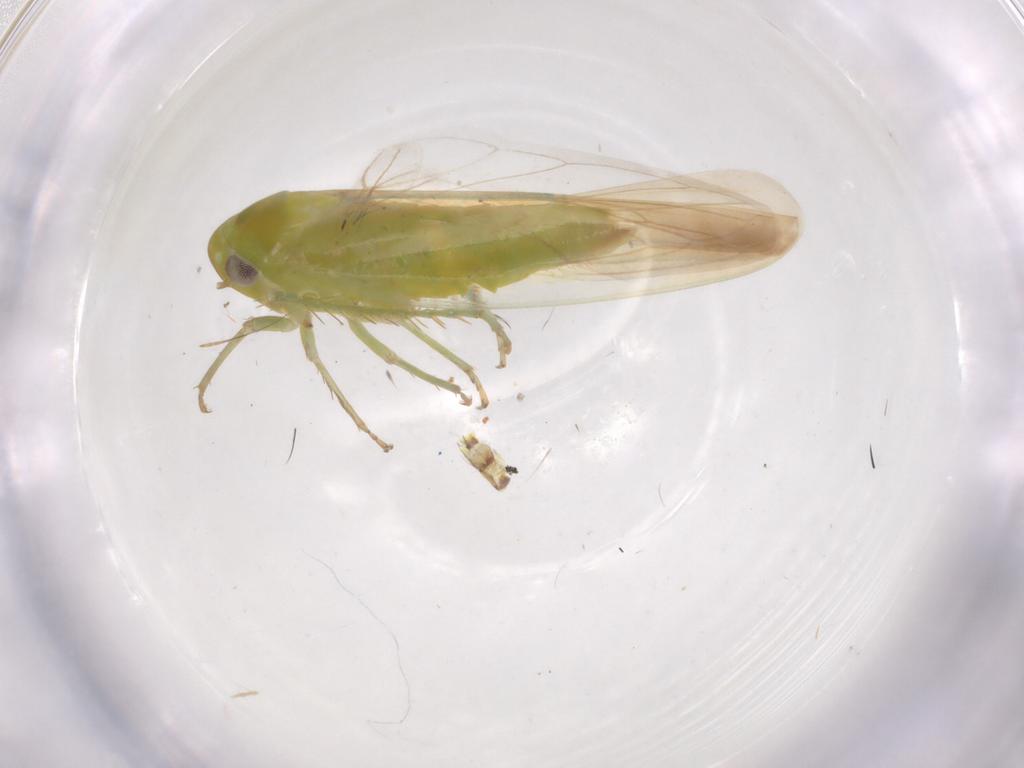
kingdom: Animalia
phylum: Arthropoda
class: Insecta
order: Hemiptera
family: Cicadellidae
